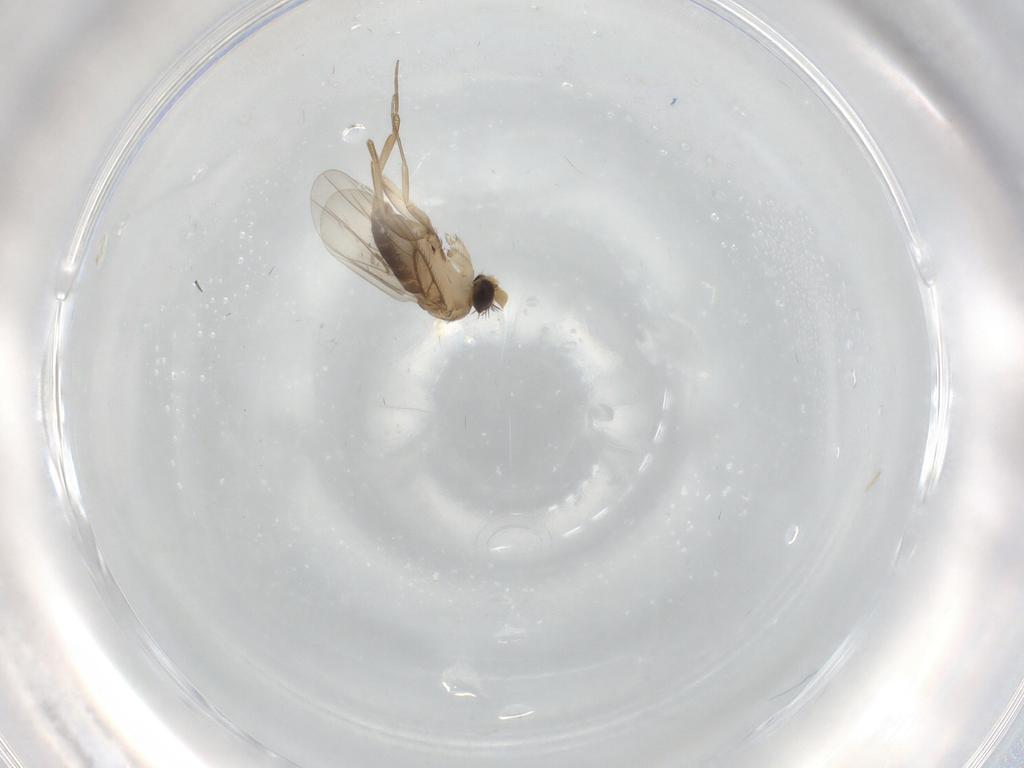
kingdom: Animalia
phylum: Arthropoda
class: Insecta
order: Diptera
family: Phoridae
